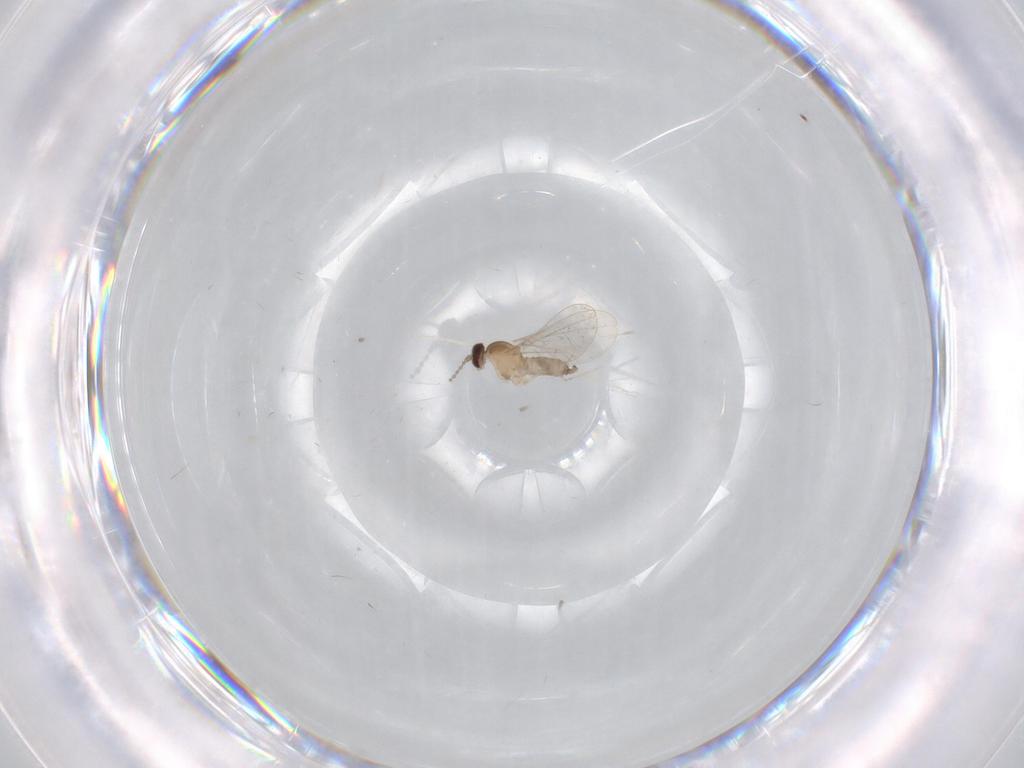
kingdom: Animalia
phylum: Arthropoda
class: Insecta
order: Diptera
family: Cecidomyiidae
